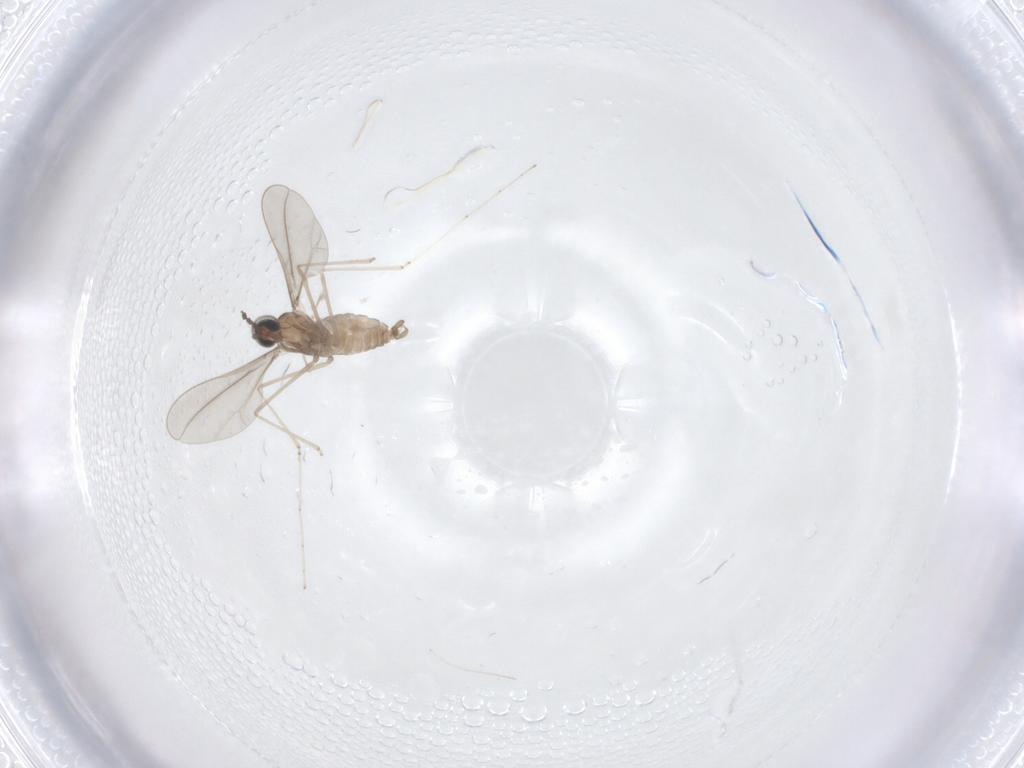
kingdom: Animalia
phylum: Arthropoda
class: Insecta
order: Diptera
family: Cecidomyiidae
